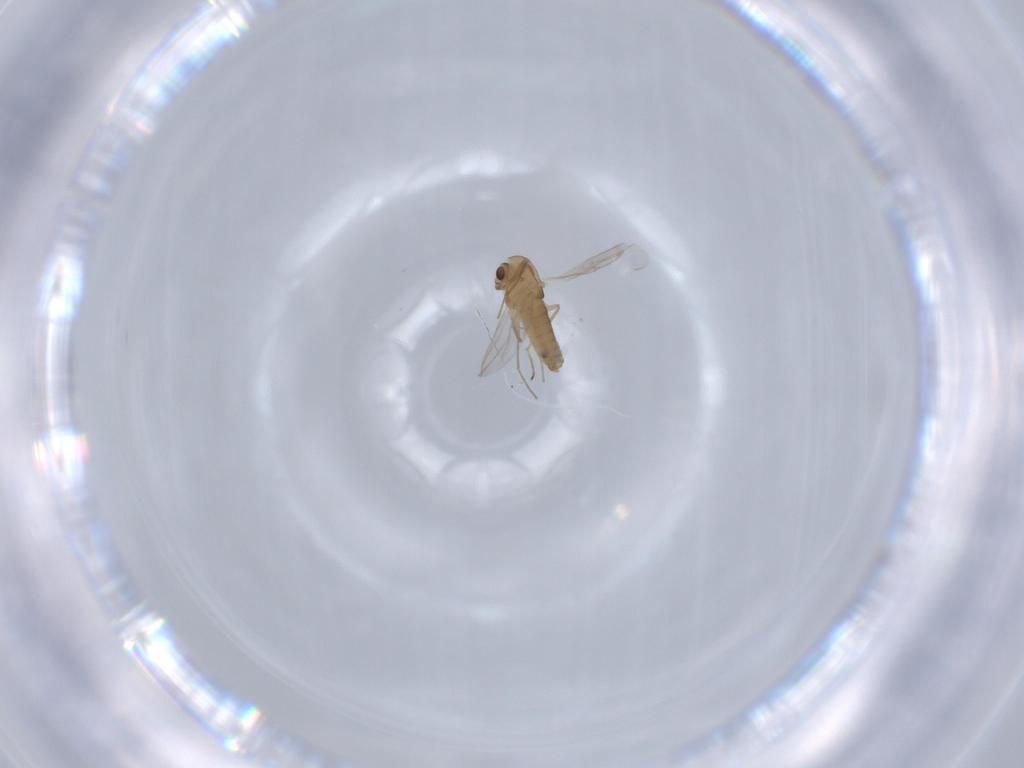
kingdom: Animalia
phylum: Arthropoda
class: Insecta
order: Diptera
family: Chironomidae
